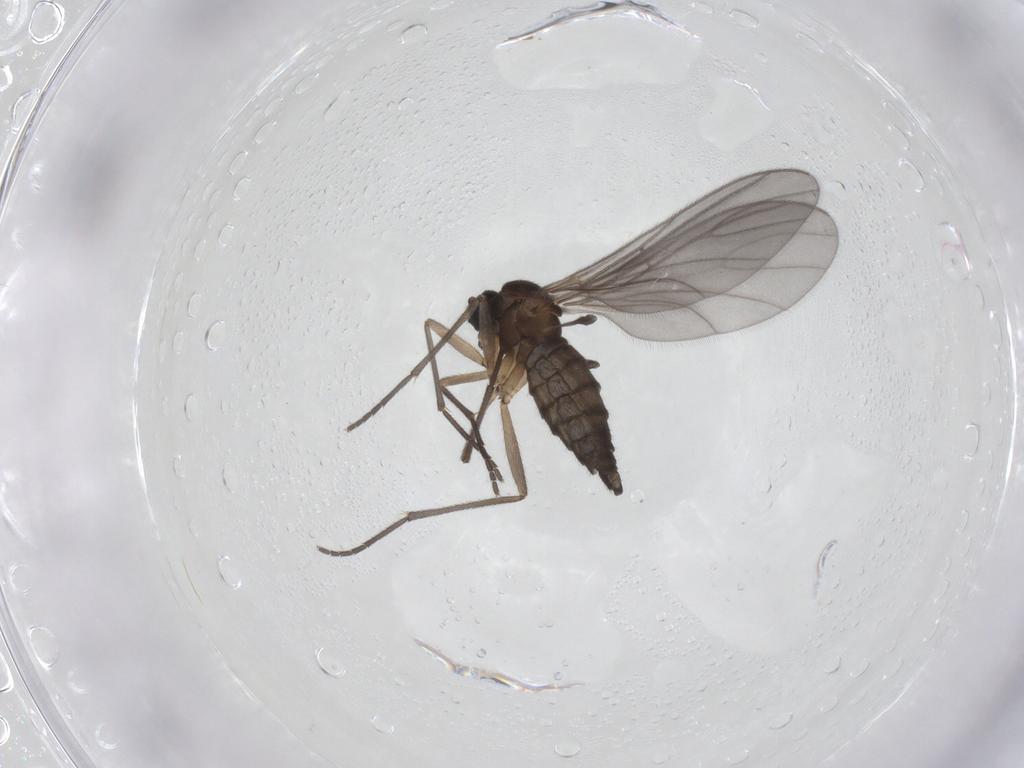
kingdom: Animalia
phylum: Arthropoda
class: Insecta
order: Diptera
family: Sciaridae
